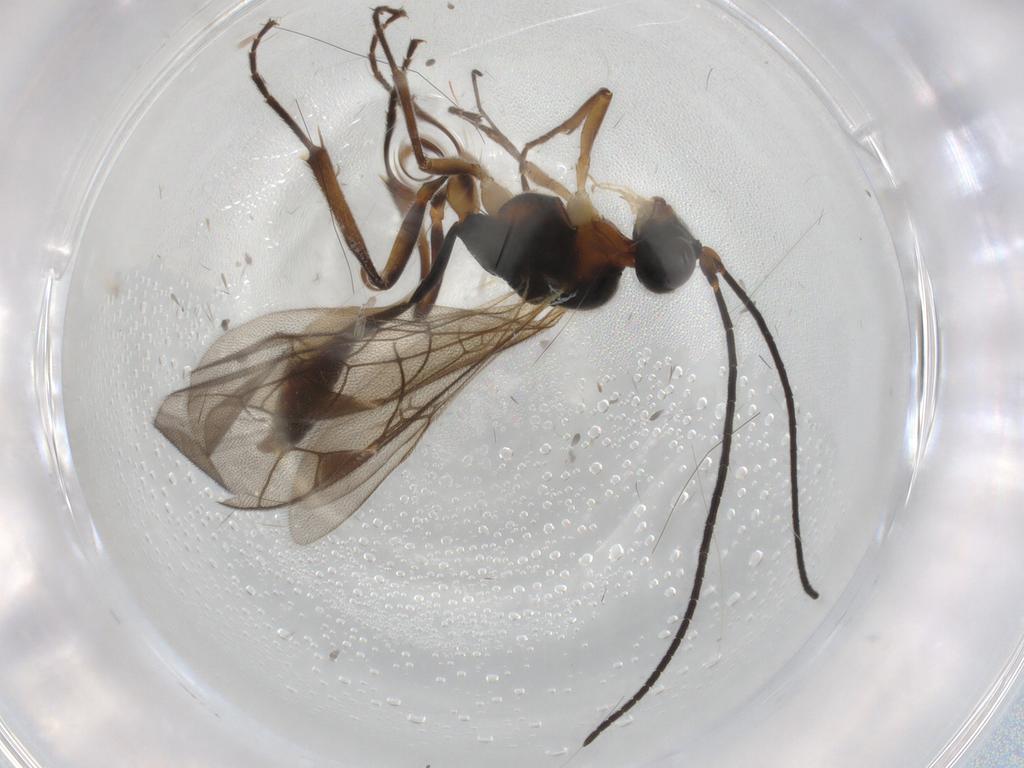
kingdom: Animalia
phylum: Arthropoda
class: Insecta
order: Hymenoptera
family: Ichneumonidae
